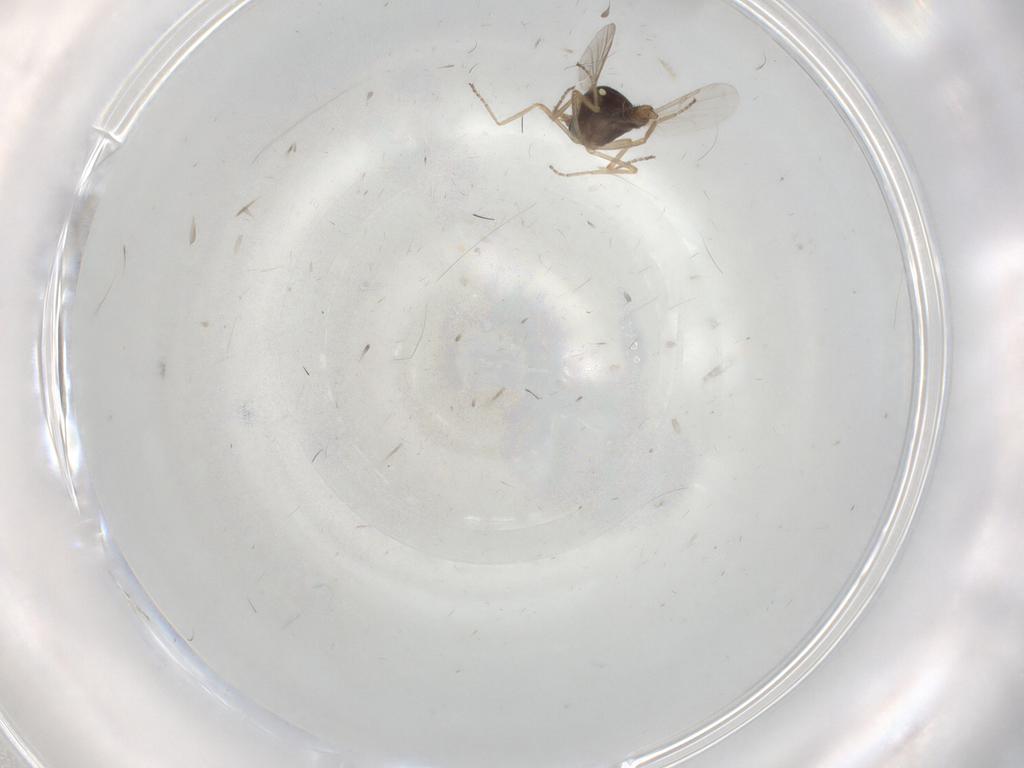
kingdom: Animalia
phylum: Arthropoda
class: Insecta
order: Diptera
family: Ceratopogonidae
